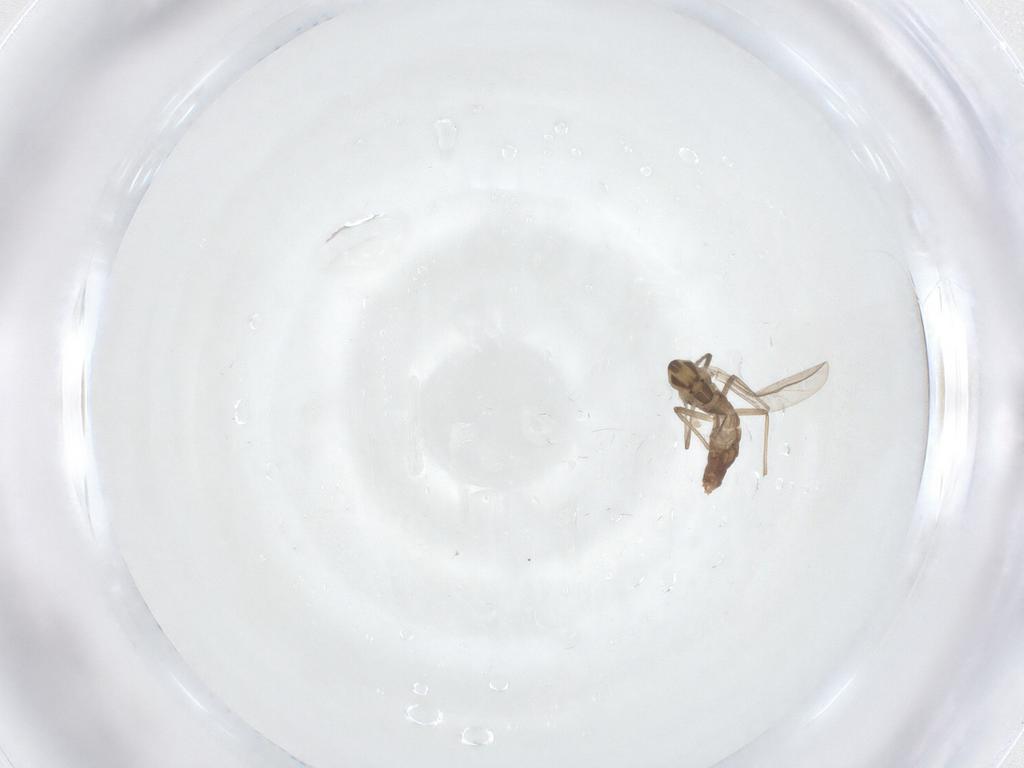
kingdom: Animalia
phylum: Arthropoda
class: Insecta
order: Diptera
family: Chironomidae
